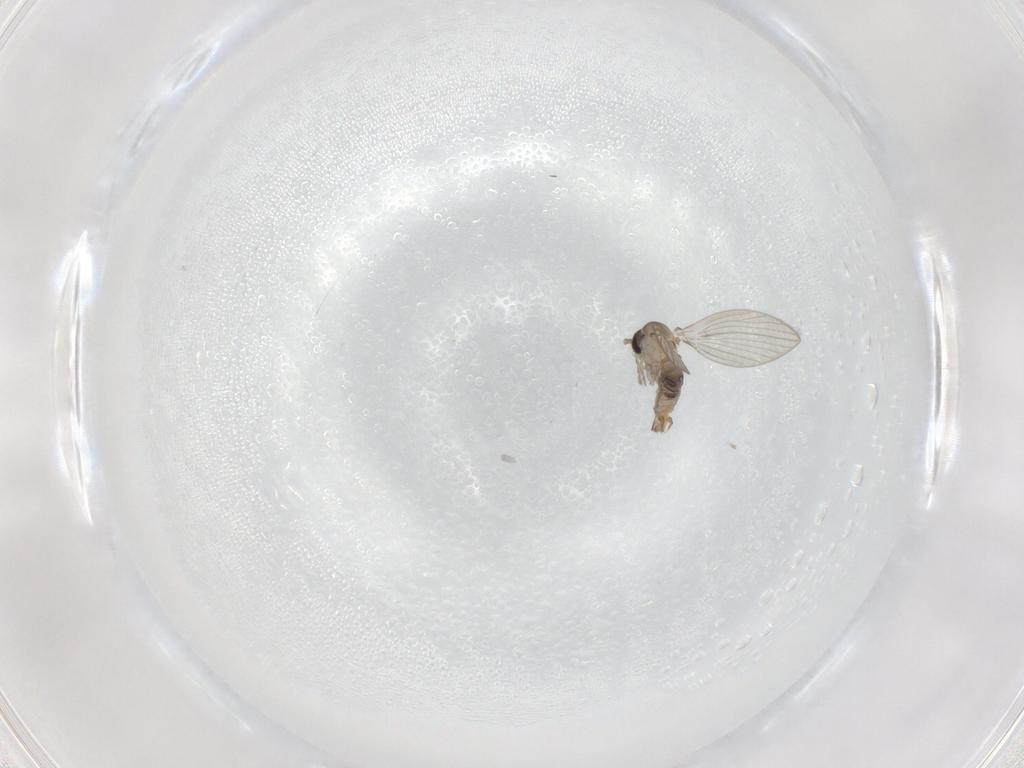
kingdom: Animalia
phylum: Arthropoda
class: Insecta
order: Diptera
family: Psychodidae
